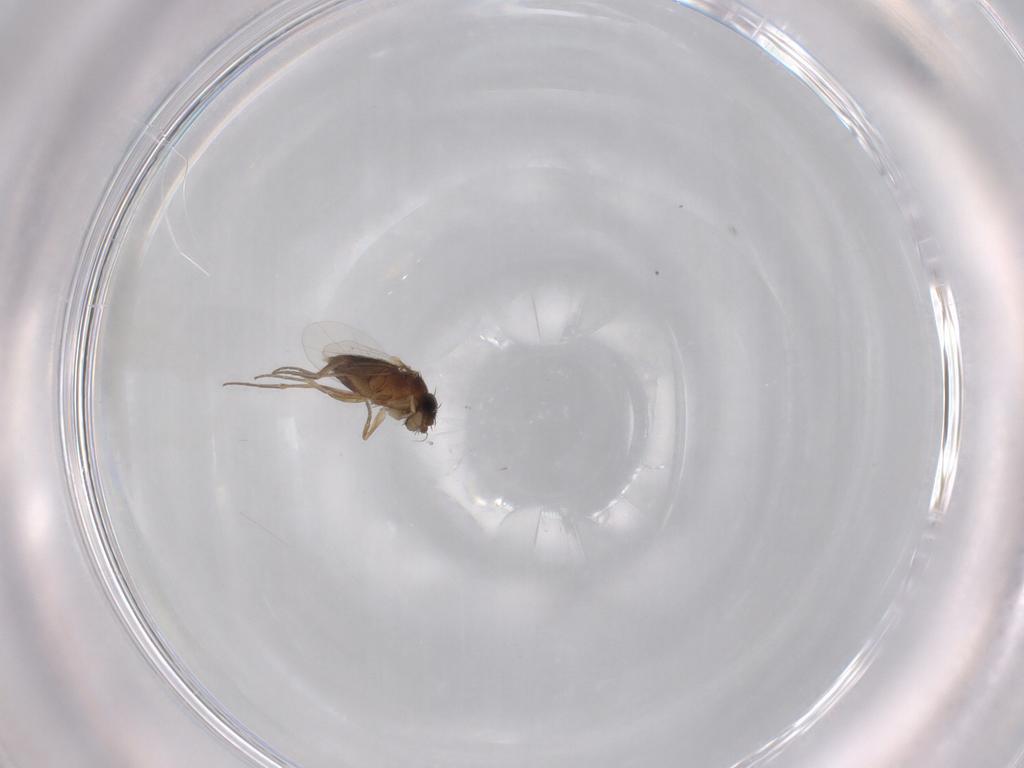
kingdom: Animalia
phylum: Arthropoda
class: Insecta
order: Diptera
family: Phoridae
